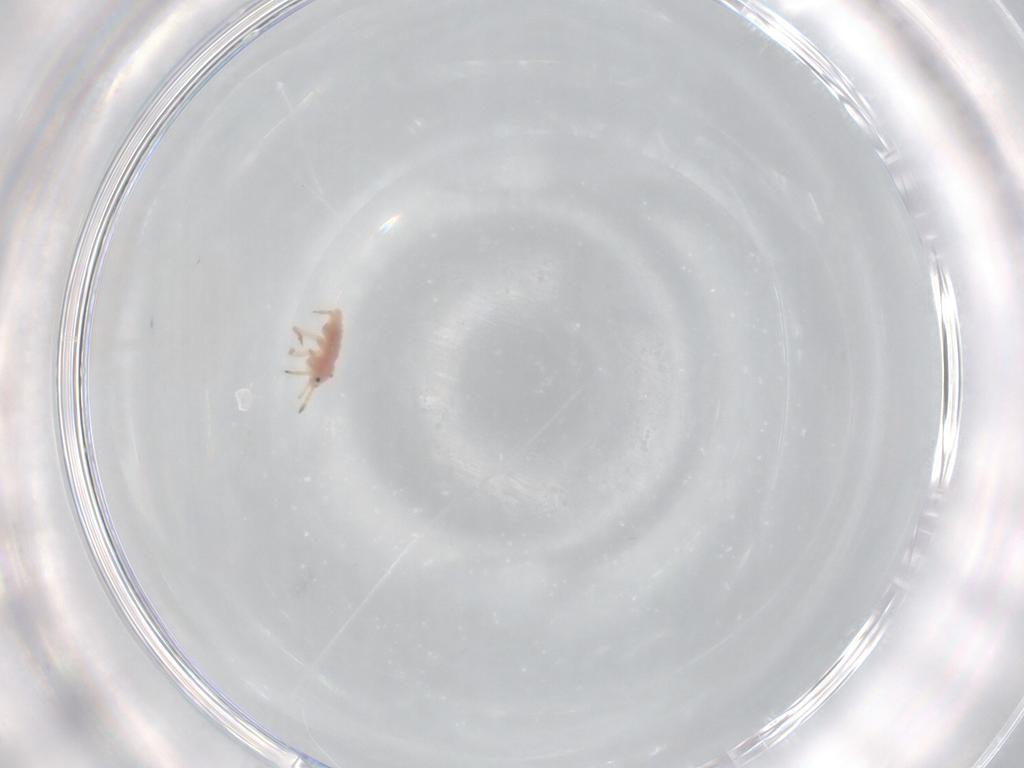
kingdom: Animalia
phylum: Arthropoda
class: Insecta
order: Hemiptera
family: Coccoidea_incertae_sedis
